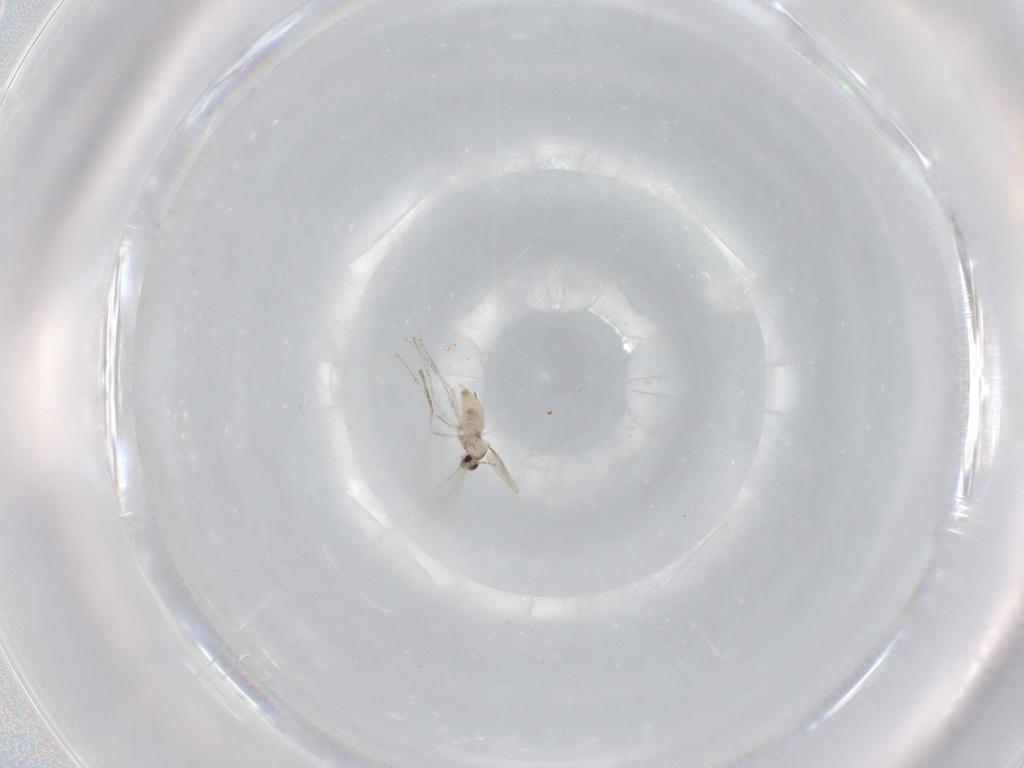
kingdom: Animalia
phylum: Arthropoda
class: Insecta
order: Diptera
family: Cecidomyiidae
